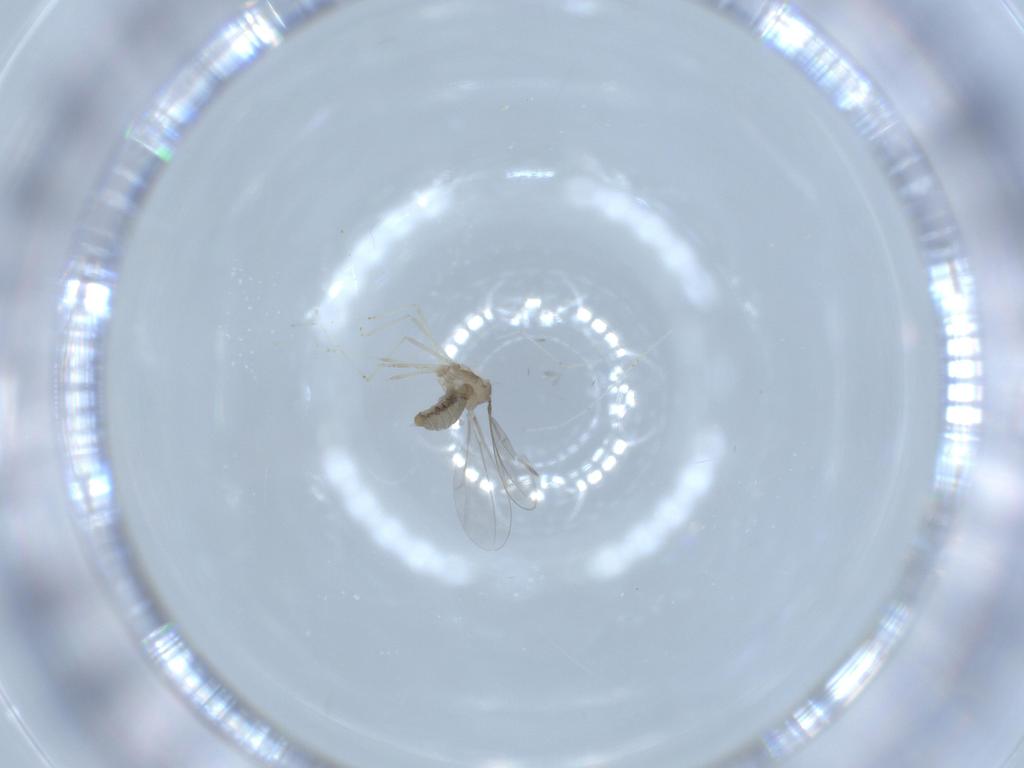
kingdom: Animalia
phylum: Arthropoda
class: Insecta
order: Diptera
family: Cecidomyiidae
